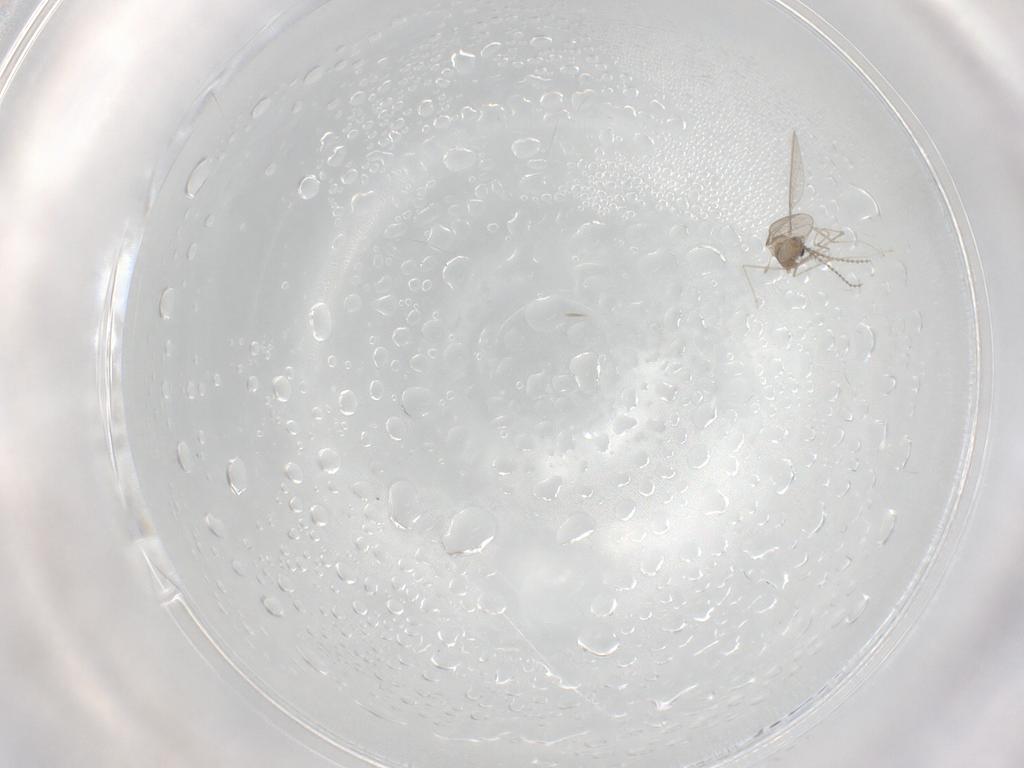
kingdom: Animalia
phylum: Arthropoda
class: Insecta
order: Diptera
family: Cecidomyiidae
